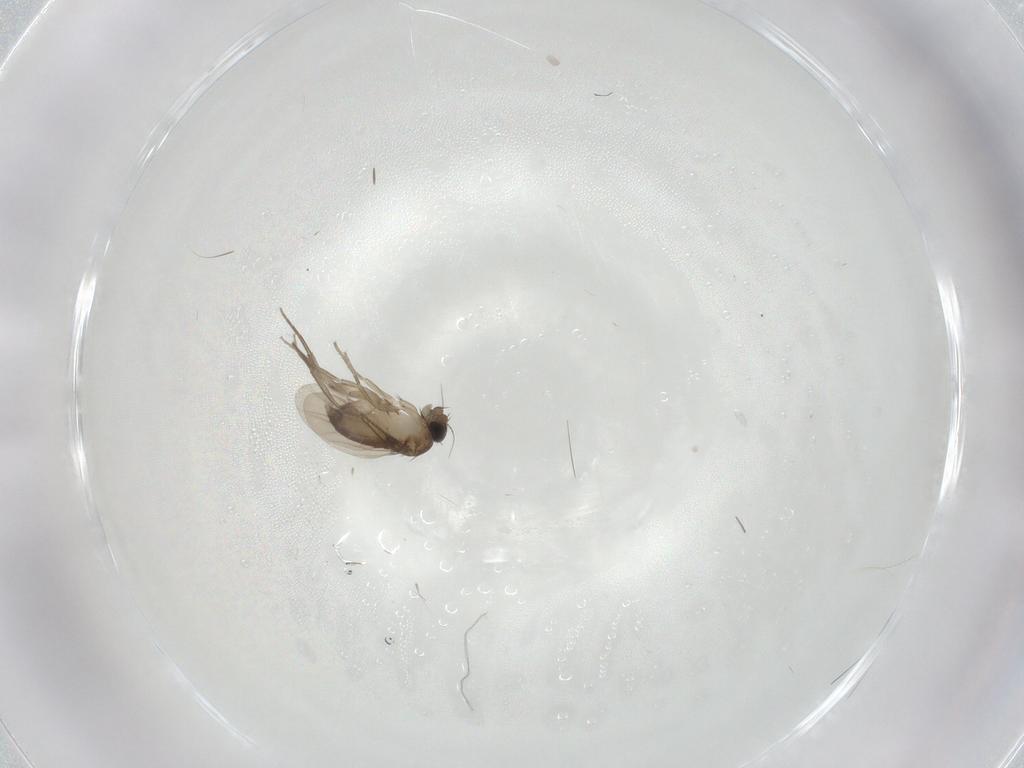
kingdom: Animalia
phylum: Arthropoda
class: Insecta
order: Diptera
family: Phoridae
